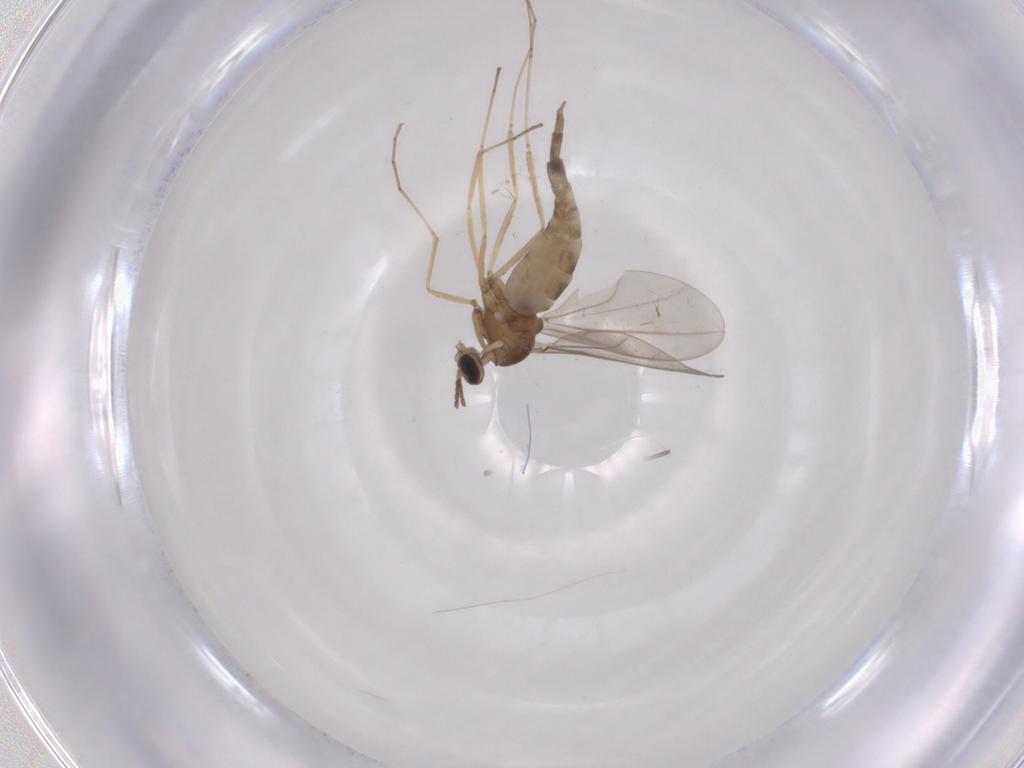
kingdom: Animalia
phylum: Arthropoda
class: Insecta
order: Diptera
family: Cecidomyiidae
